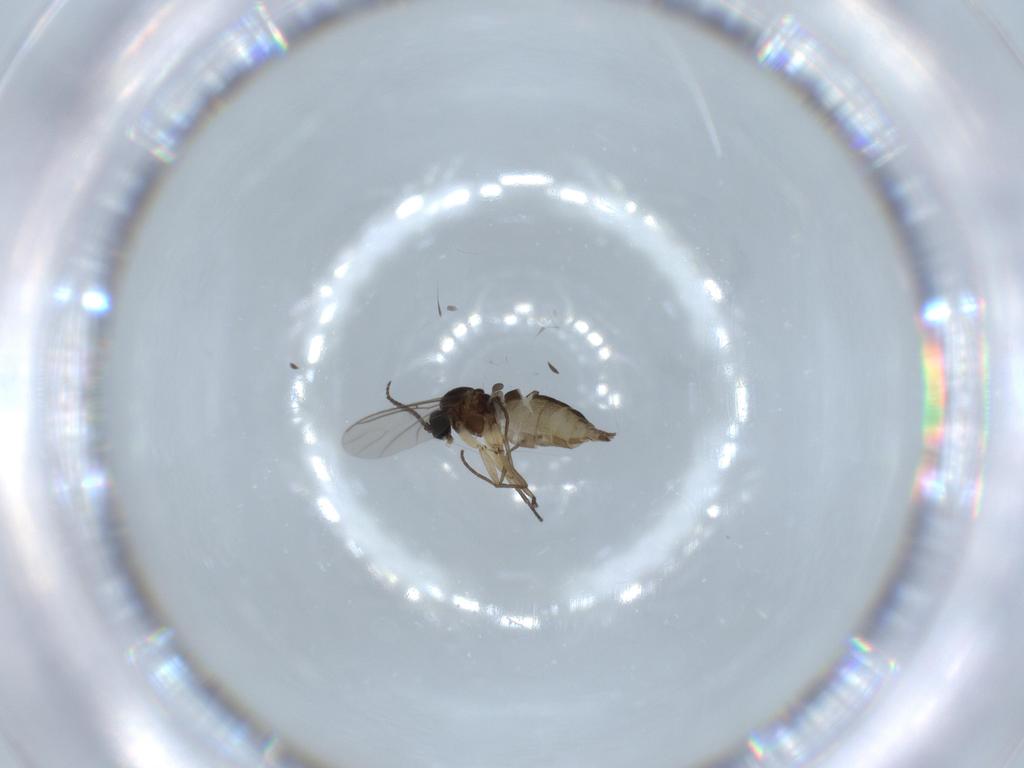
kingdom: Animalia
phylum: Arthropoda
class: Insecta
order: Diptera
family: Sciaridae
